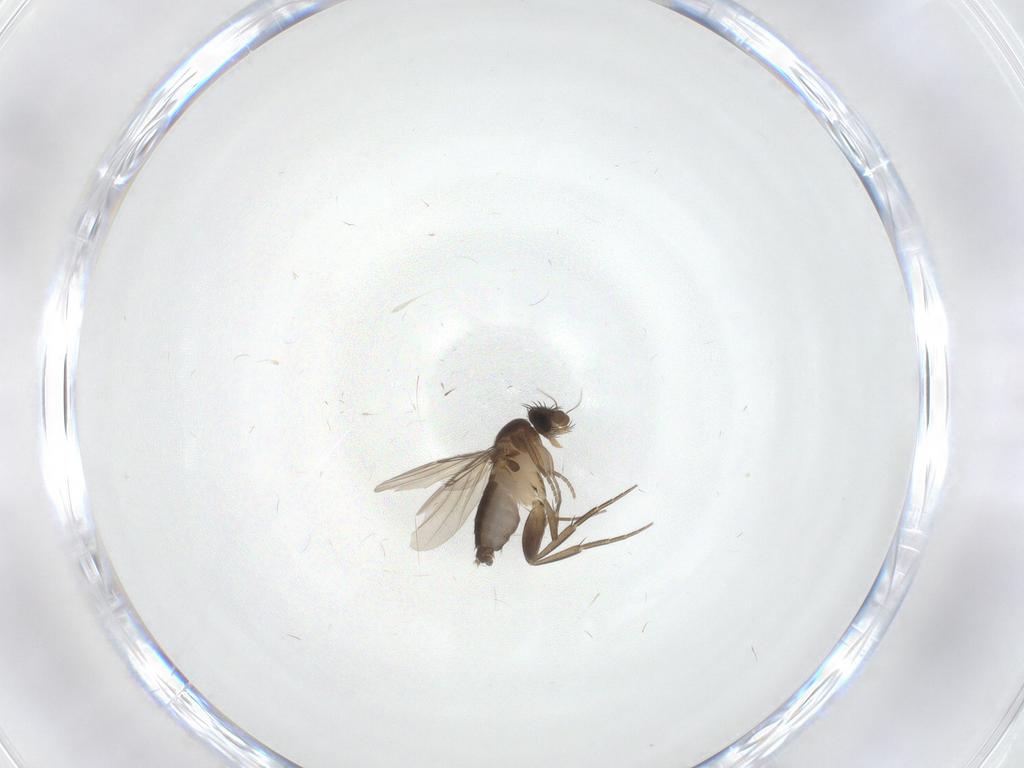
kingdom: Animalia
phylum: Arthropoda
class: Insecta
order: Diptera
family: Phoridae
